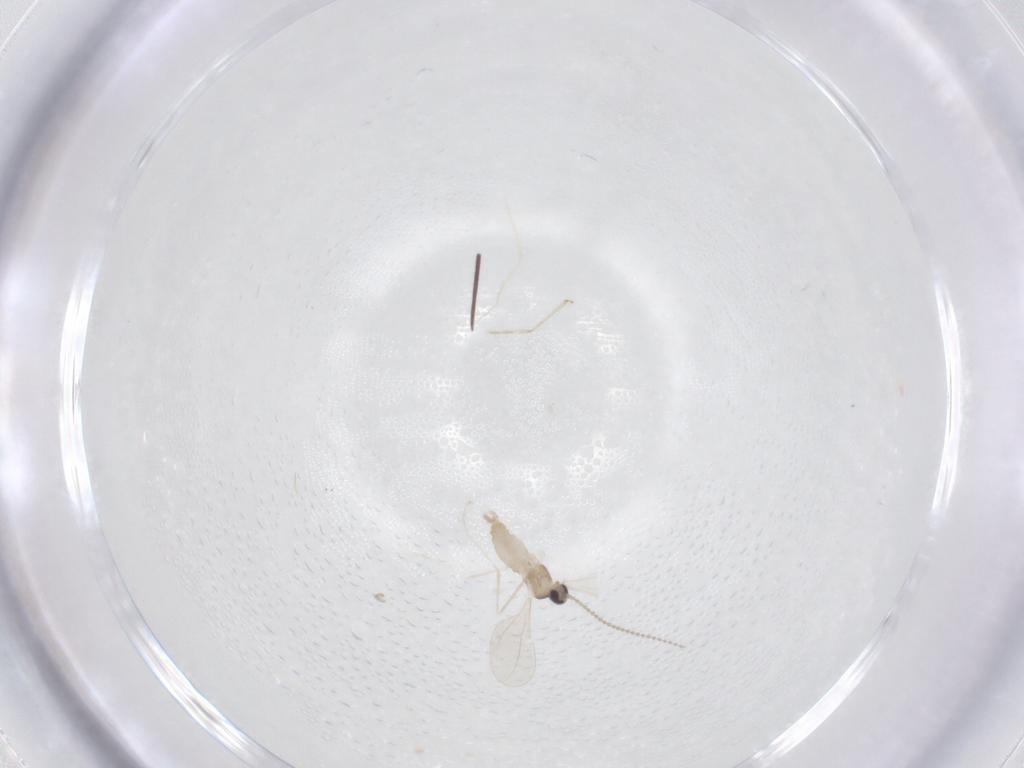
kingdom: Animalia
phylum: Arthropoda
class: Insecta
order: Diptera
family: Cecidomyiidae
